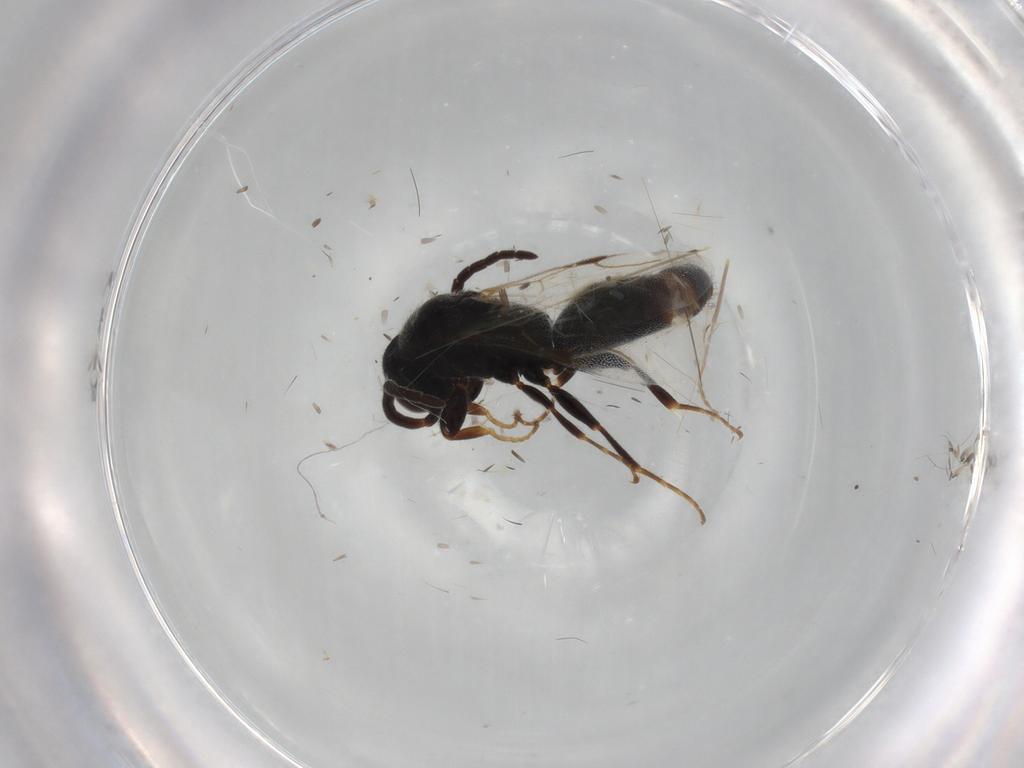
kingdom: Animalia
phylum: Arthropoda
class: Insecta
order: Hymenoptera
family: Bethylidae
